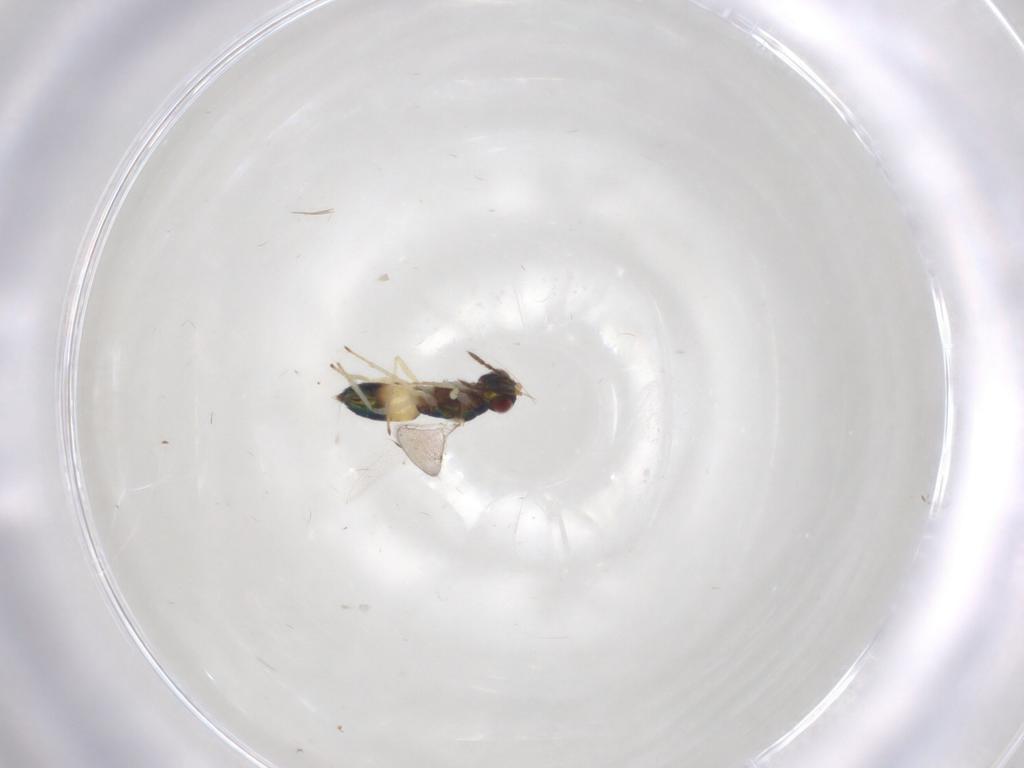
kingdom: Animalia
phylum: Arthropoda
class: Insecta
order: Hymenoptera
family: Eulophidae
